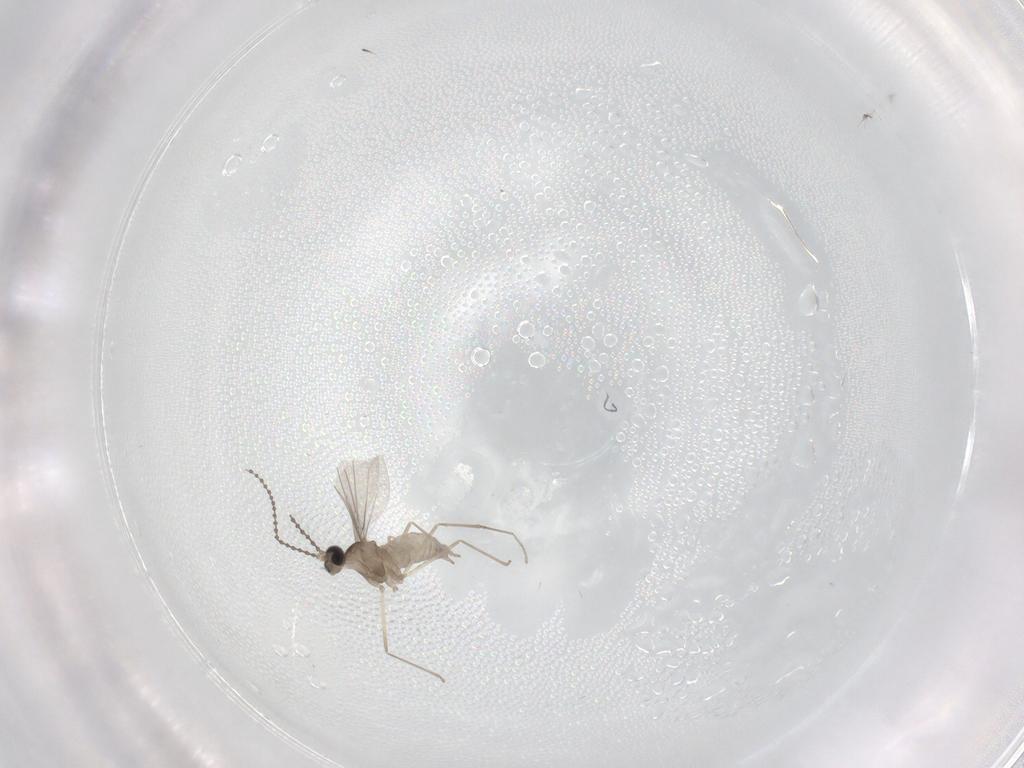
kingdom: Animalia
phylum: Arthropoda
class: Insecta
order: Diptera
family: Cecidomyiidae
